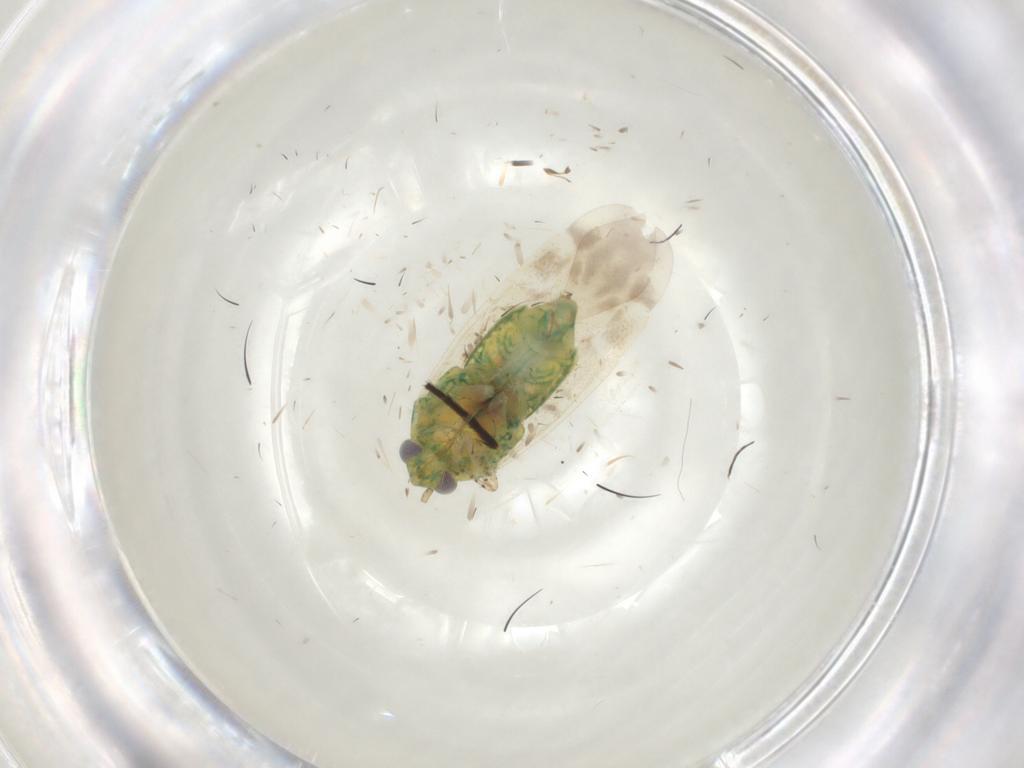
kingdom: Animalia
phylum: Arthropoda
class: Insecta
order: Hemiptera
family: Miridae
